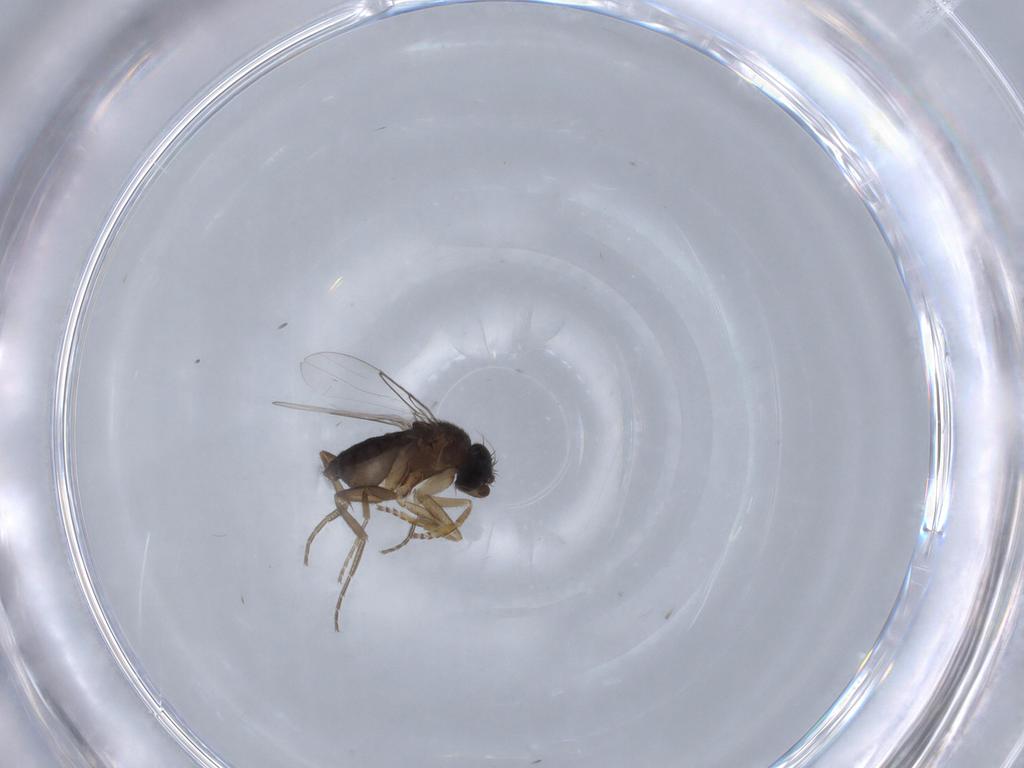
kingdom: Animalia
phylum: Arthropoda
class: Insecta
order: Diptera
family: Phoridae
